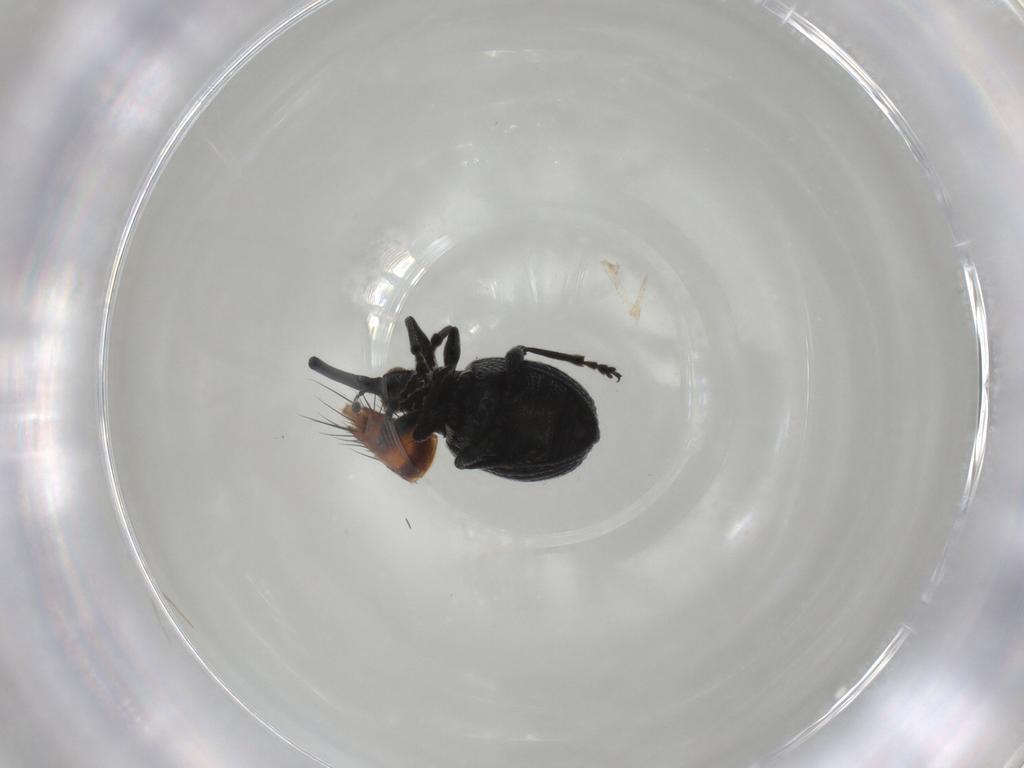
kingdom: Animalia
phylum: Arthropoda
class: Insecta
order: Coleoptera
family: Staphylinidae
